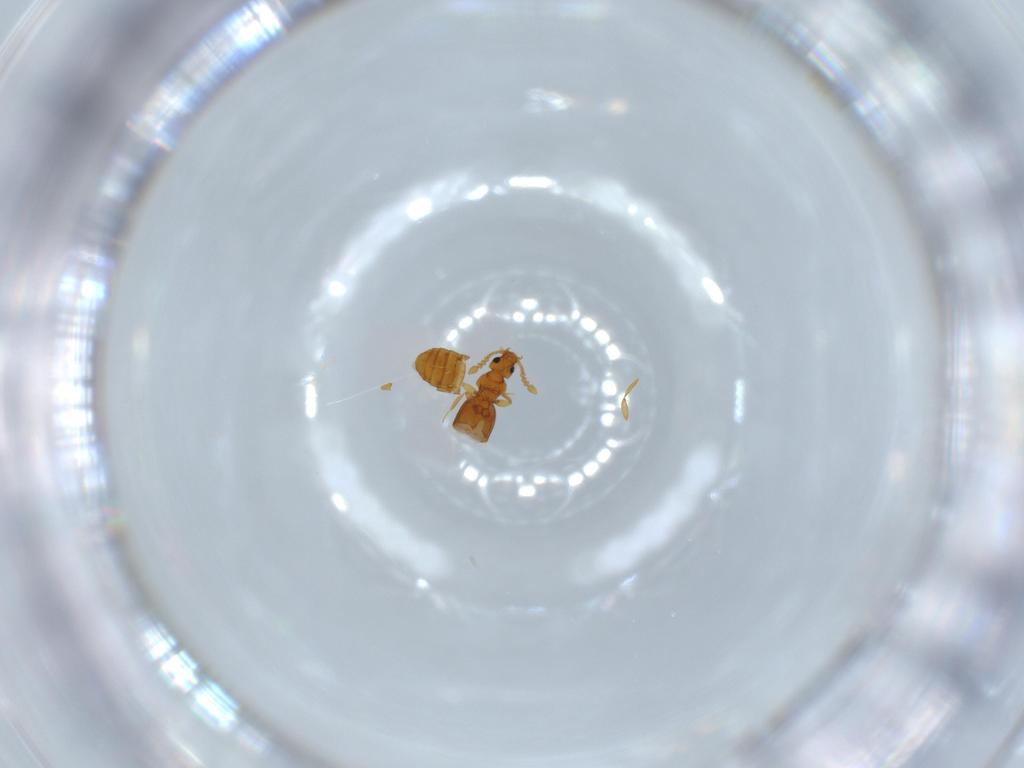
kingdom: Animalia
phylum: Arthropoda
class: Insecta
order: Coleoptera
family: Staphylinidae
